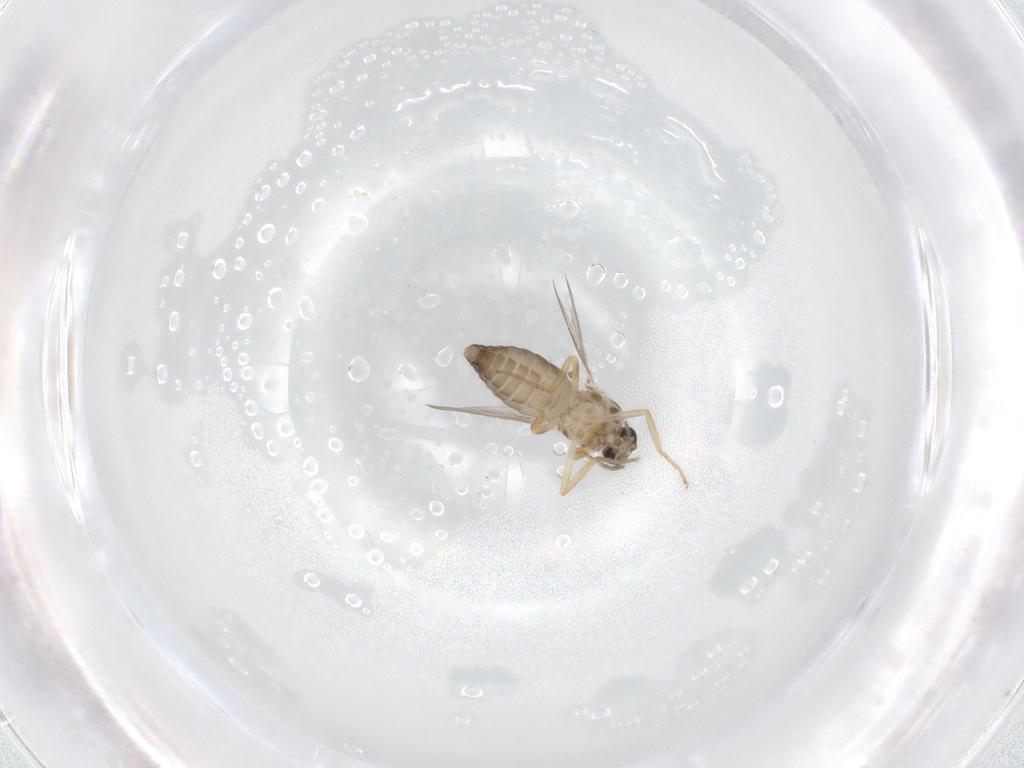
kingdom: Animalia
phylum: Arthropoda
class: Insecta
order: Diptera
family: Ceratopogonidae
